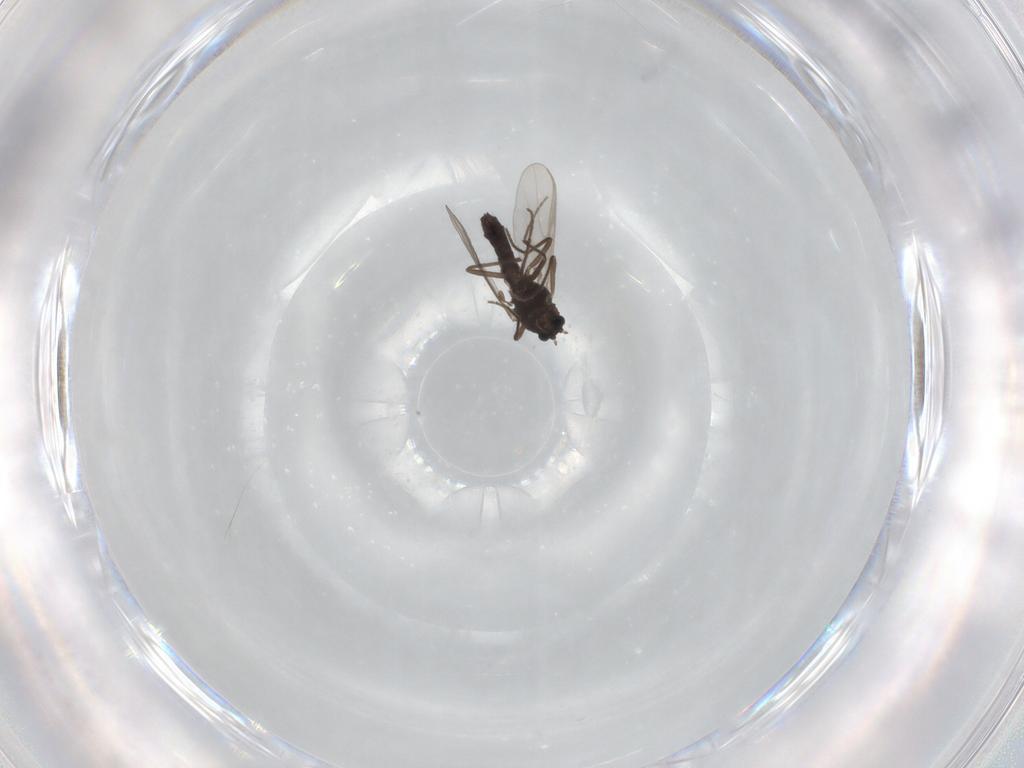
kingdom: Animalia
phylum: Arthropoda
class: Insecta
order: Diptera
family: Chironomidae
